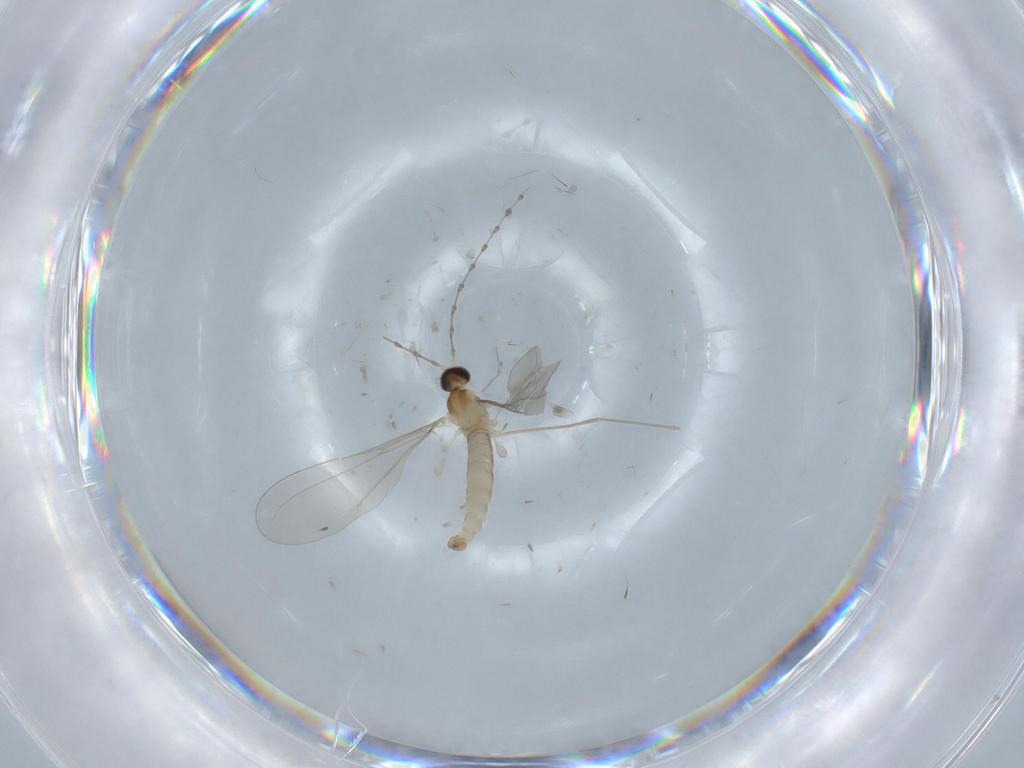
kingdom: Animalia
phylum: Arthropoda
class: Insecta
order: Diptera
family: Cecidomyiidae
